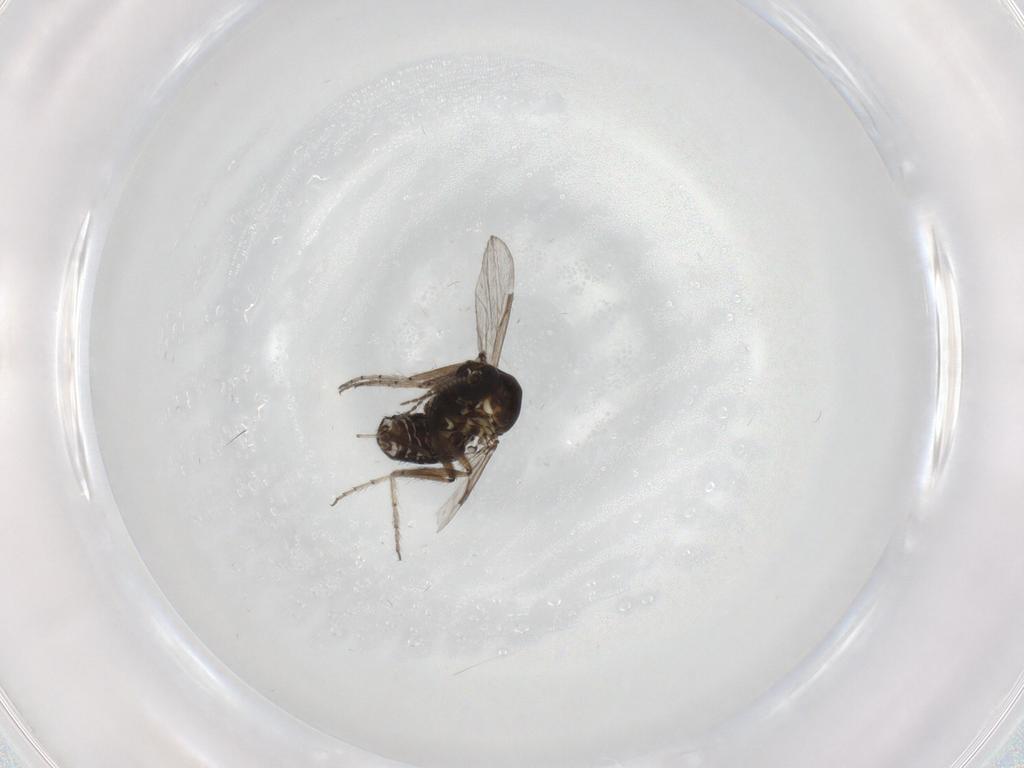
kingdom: Animalia
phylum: Arthropoda
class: Insecta
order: Diptera
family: Ceratopogonidae
